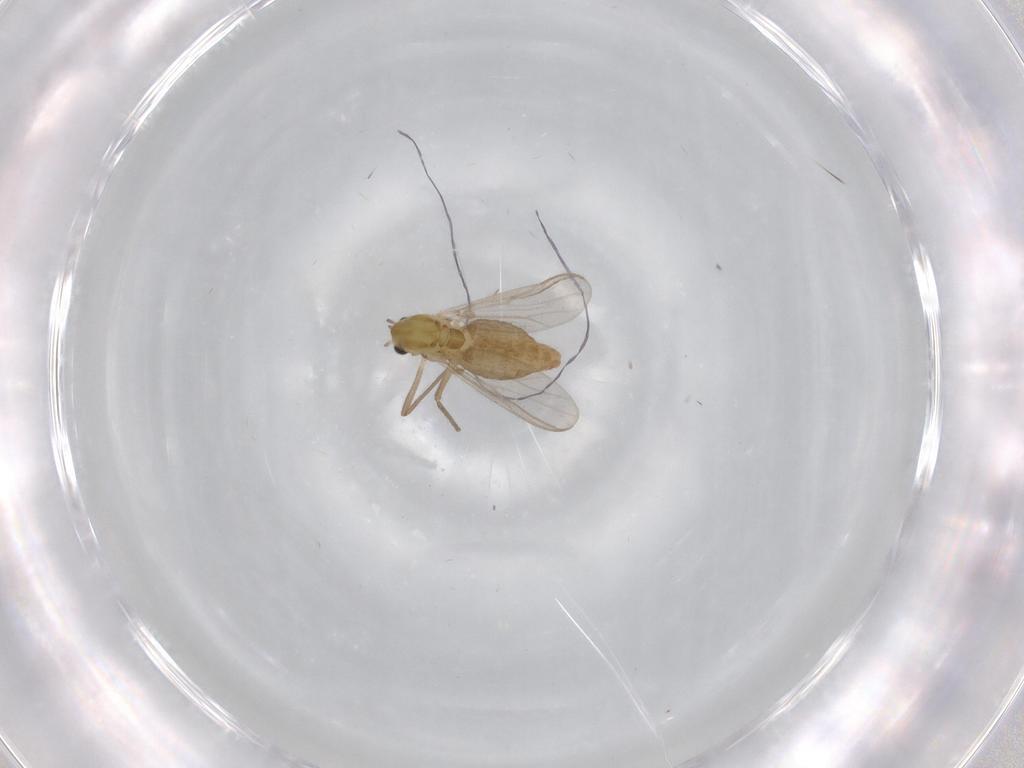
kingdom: Animalia
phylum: Arthropoda
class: Insecta
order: Diptera
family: Chironomidae
